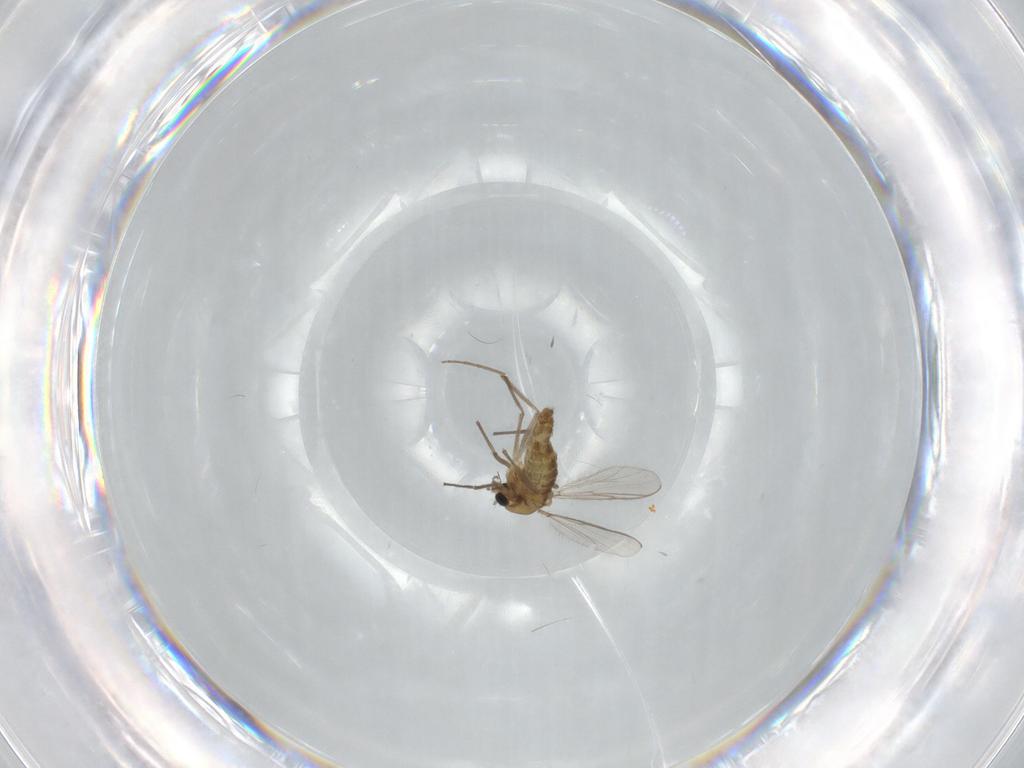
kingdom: Animalia
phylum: Arthropoda
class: Insecta
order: Diptera
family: Chironomidae
